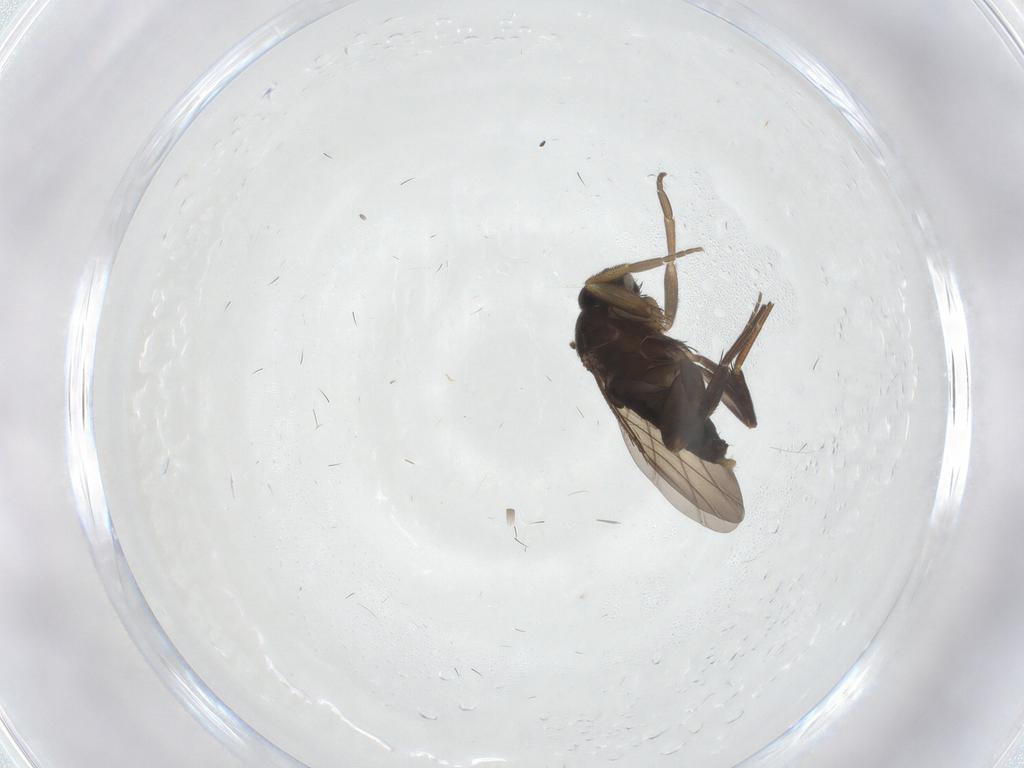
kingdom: Animalia
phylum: Arthropoda
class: Insecta
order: Diptera
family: Phoridae
